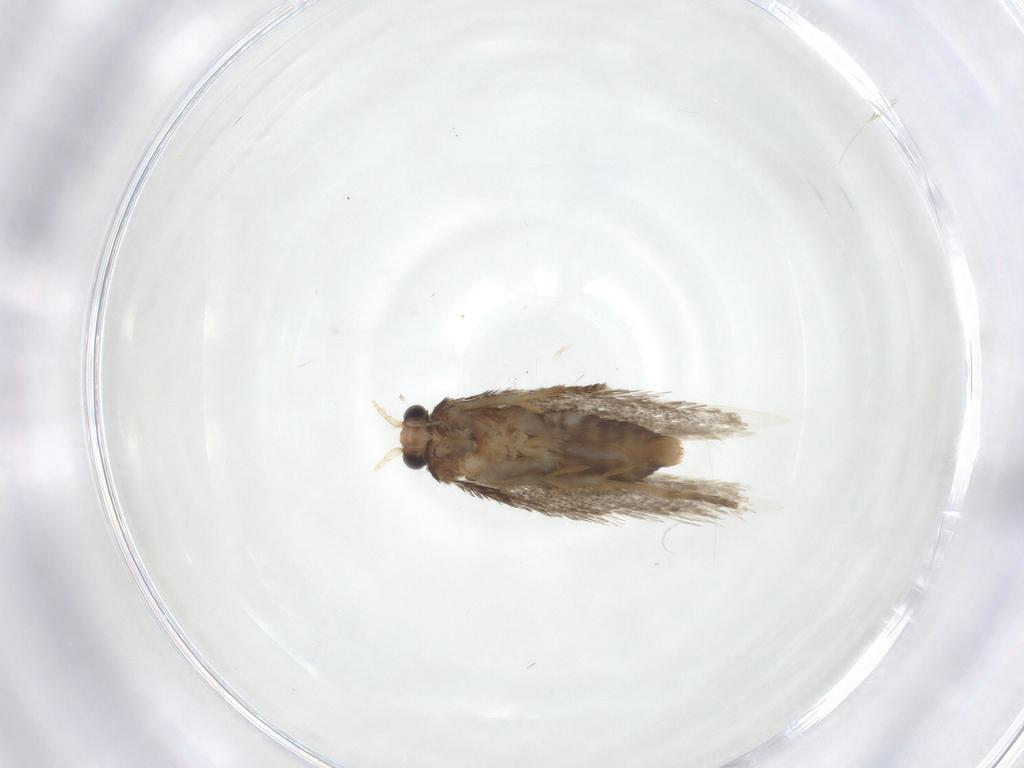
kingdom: Animalia
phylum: Arthropoda
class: Insecta
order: Lepidoptera
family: Nepticulidae
